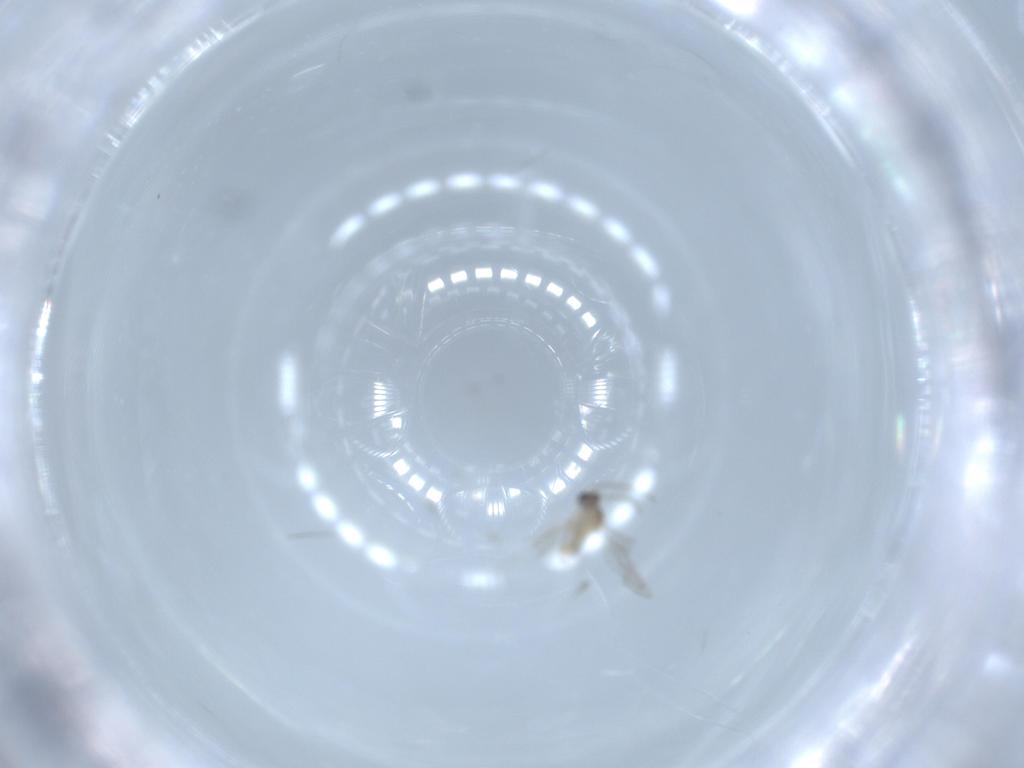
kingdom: Animalia
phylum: Arthropoda
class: Insecta
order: Diptera
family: Cecidomyiidae
